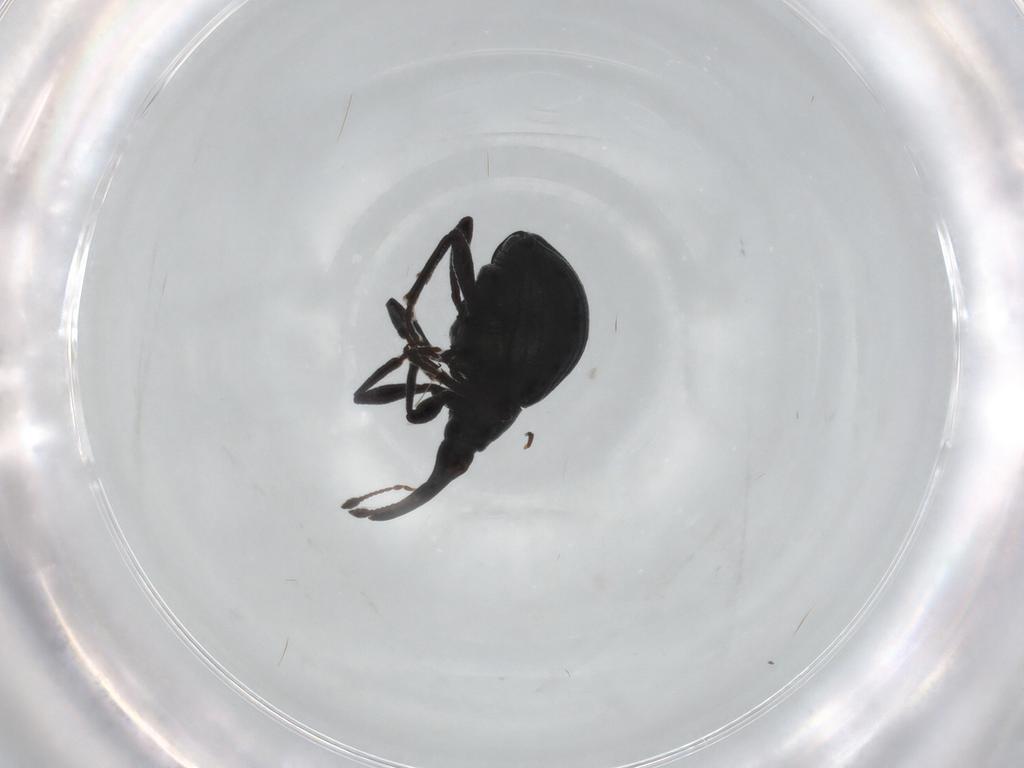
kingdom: Animalia
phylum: Arthropoda
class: Insecta
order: Coleoptera
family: Brentidae
